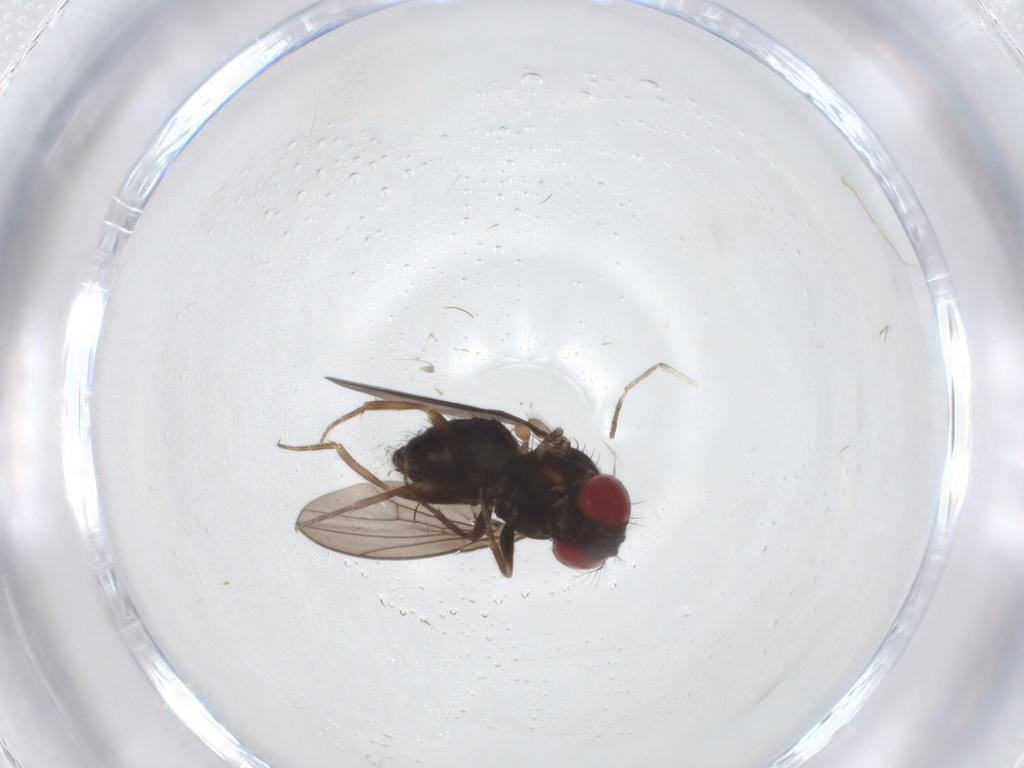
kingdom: Animalia
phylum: Arthropoda
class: Insecta
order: Diptera
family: Drosophilidae
